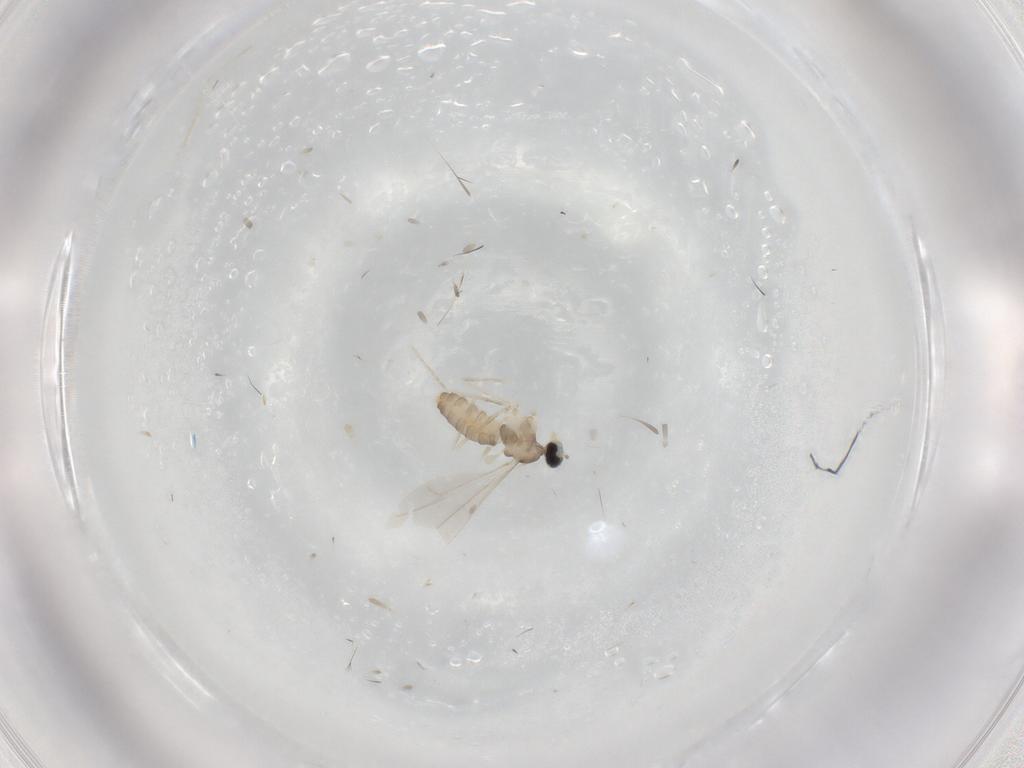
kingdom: Animalia
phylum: Arthropoda
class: Insecta
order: Diptera
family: Cecidomyiidae
